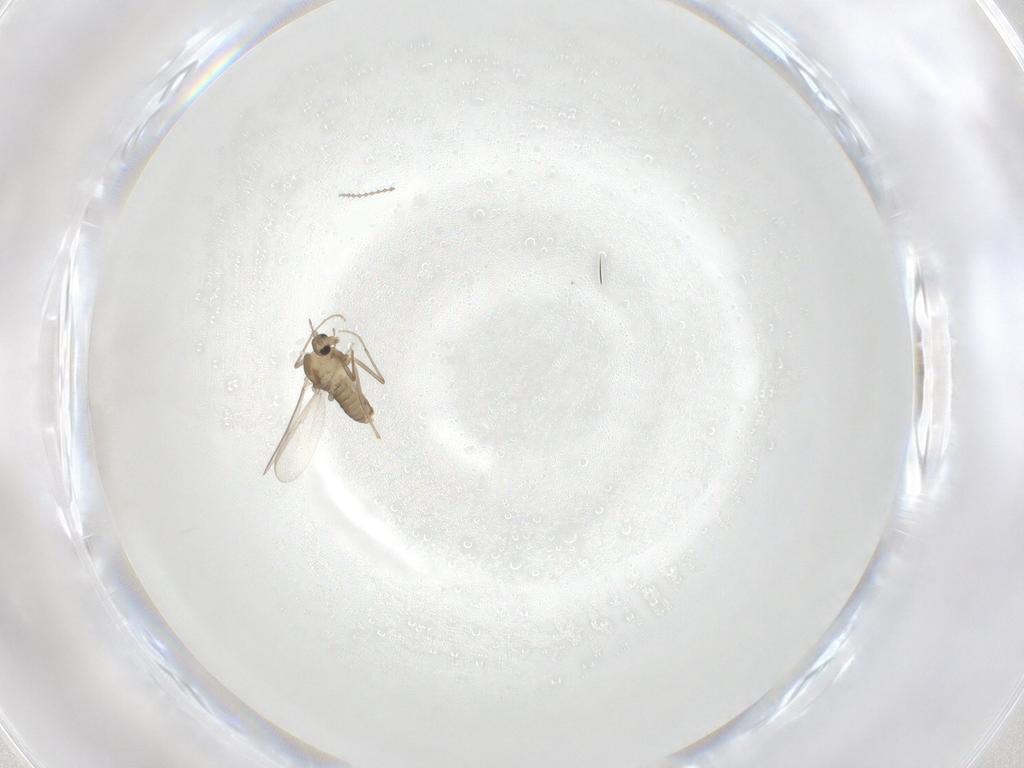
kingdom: Animalia
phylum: Arthropoda
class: Insecta
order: Diptera
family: Chironomidae
